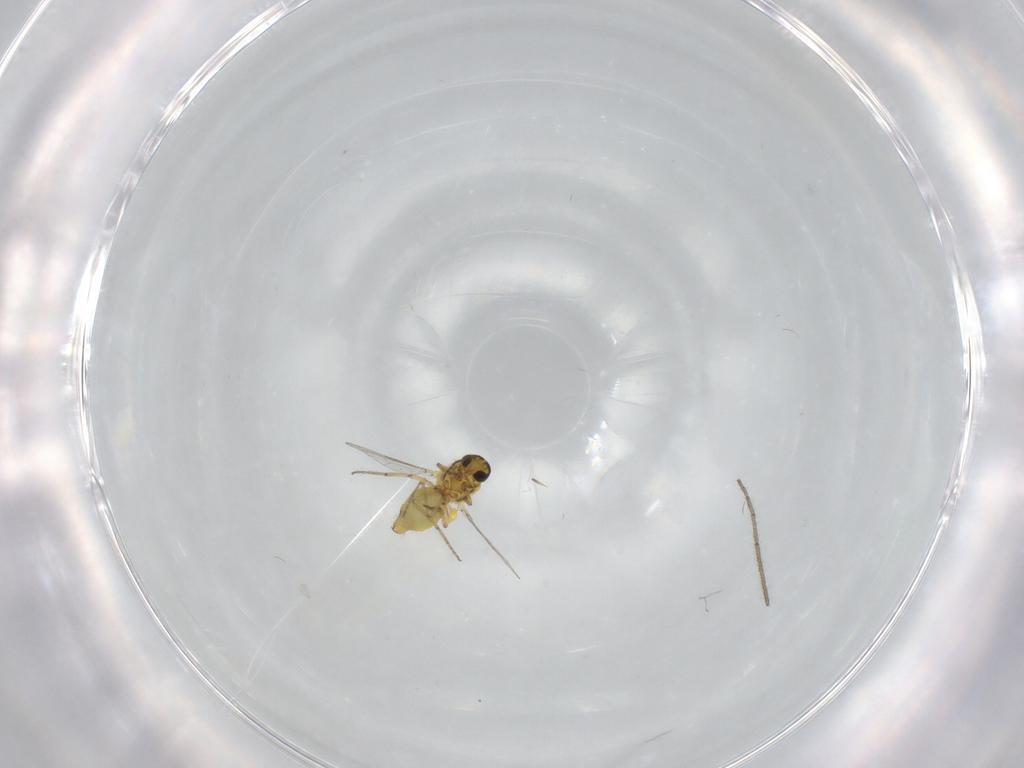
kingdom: Animalia
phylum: Arthropoda
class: Insecta
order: Diptera
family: Limoniidae
